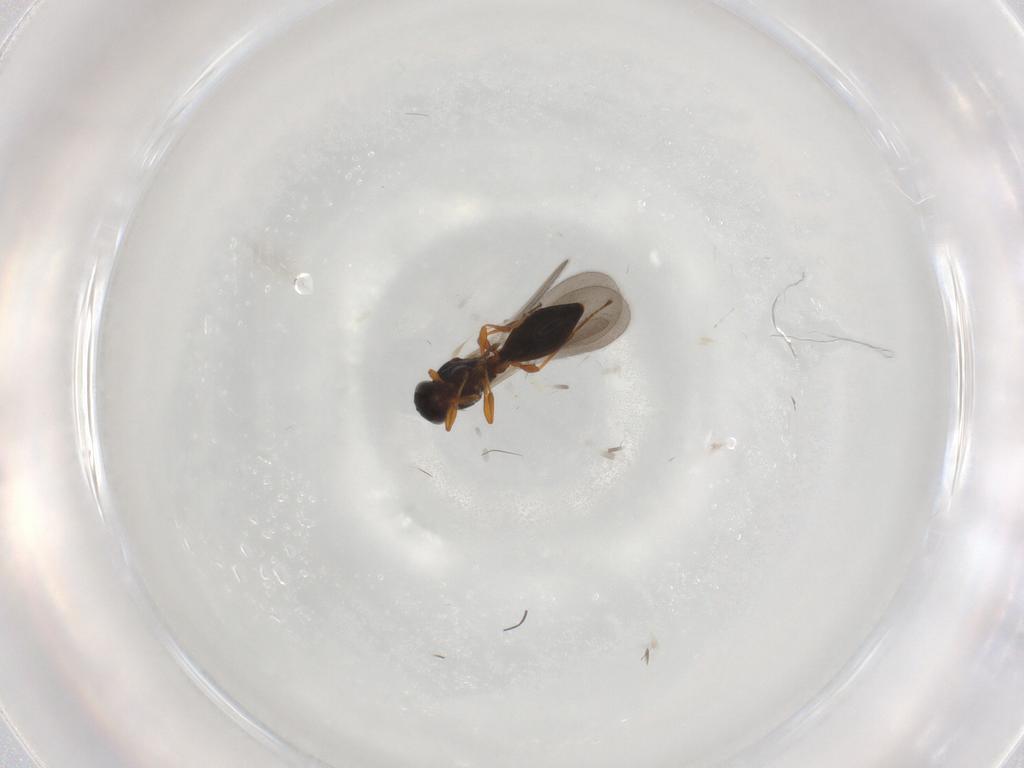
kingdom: Animalia
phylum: Arthropoda
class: Insecta
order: Hymenoptera
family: Platygastridae
